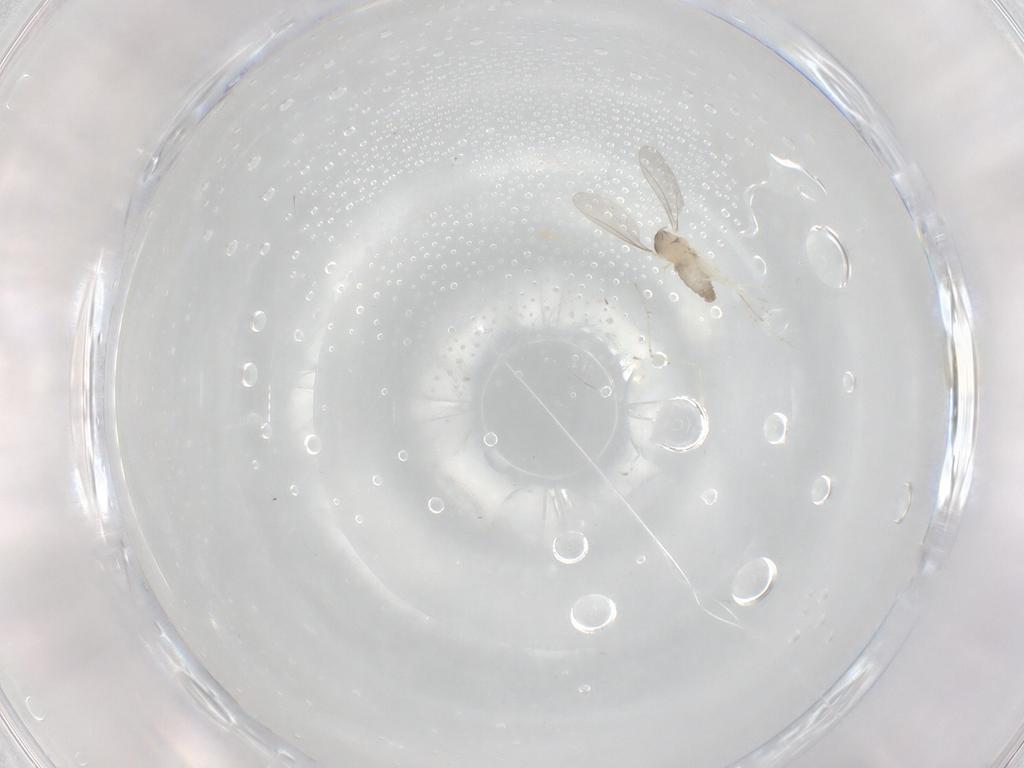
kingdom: Animalia
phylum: Arthropoda
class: Insecta
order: Diptera
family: Cecidomyiidae
